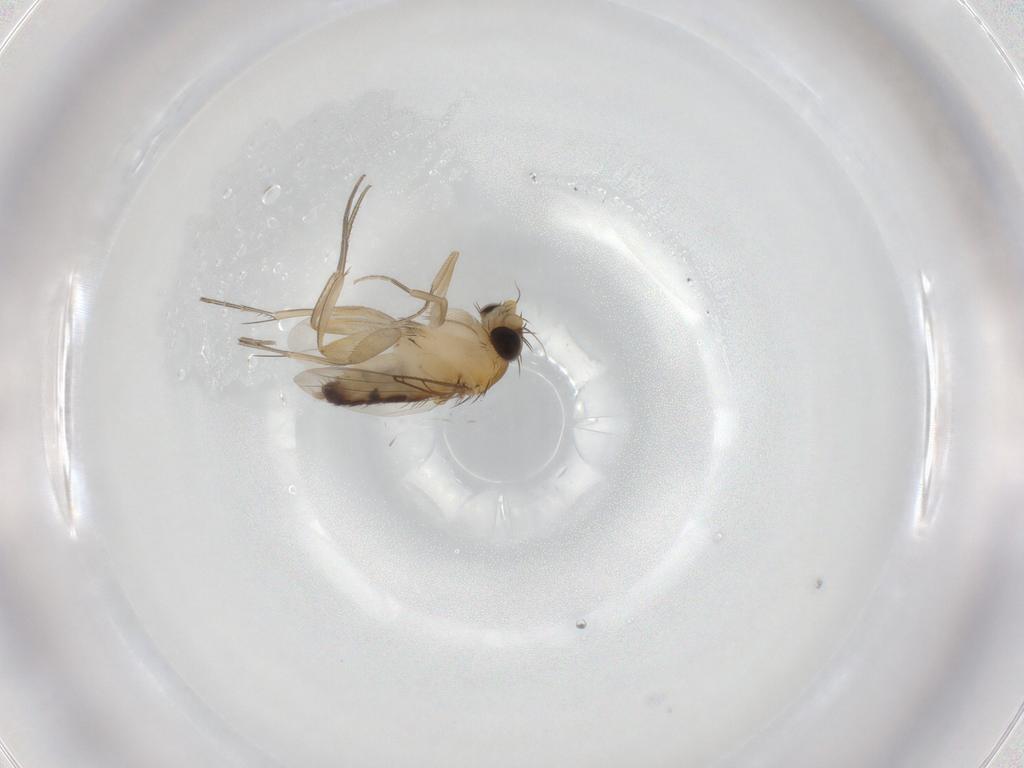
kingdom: Animalia
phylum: Arthropoda
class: Insecta
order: Diptera
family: Phoridae
